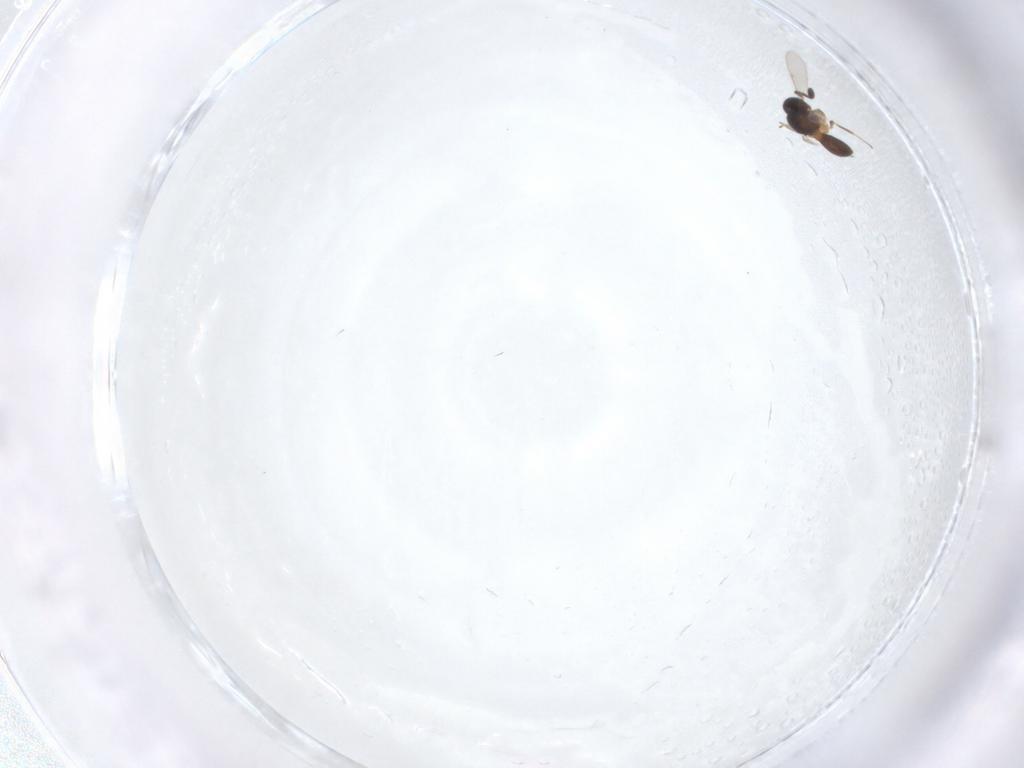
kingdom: Animalia
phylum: Arthropoda
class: Insecta
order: Diptera
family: Sciaridae
